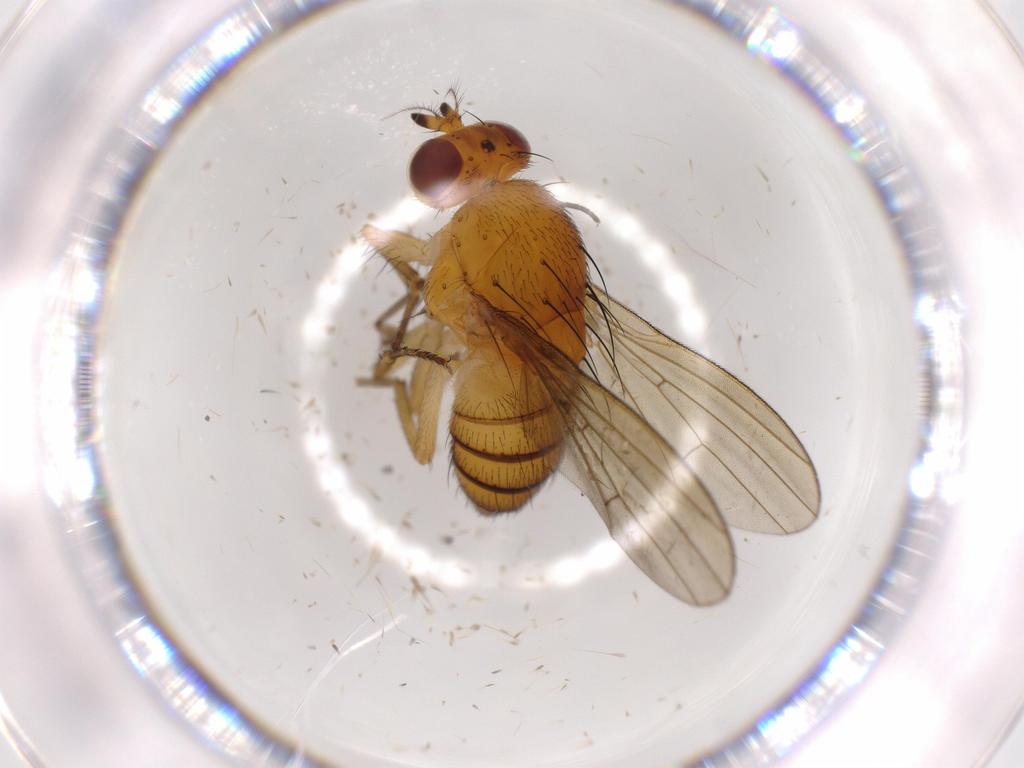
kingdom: Animalia
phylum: Arthropoda
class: Insecta
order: Diptera
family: Lauxaniidae
